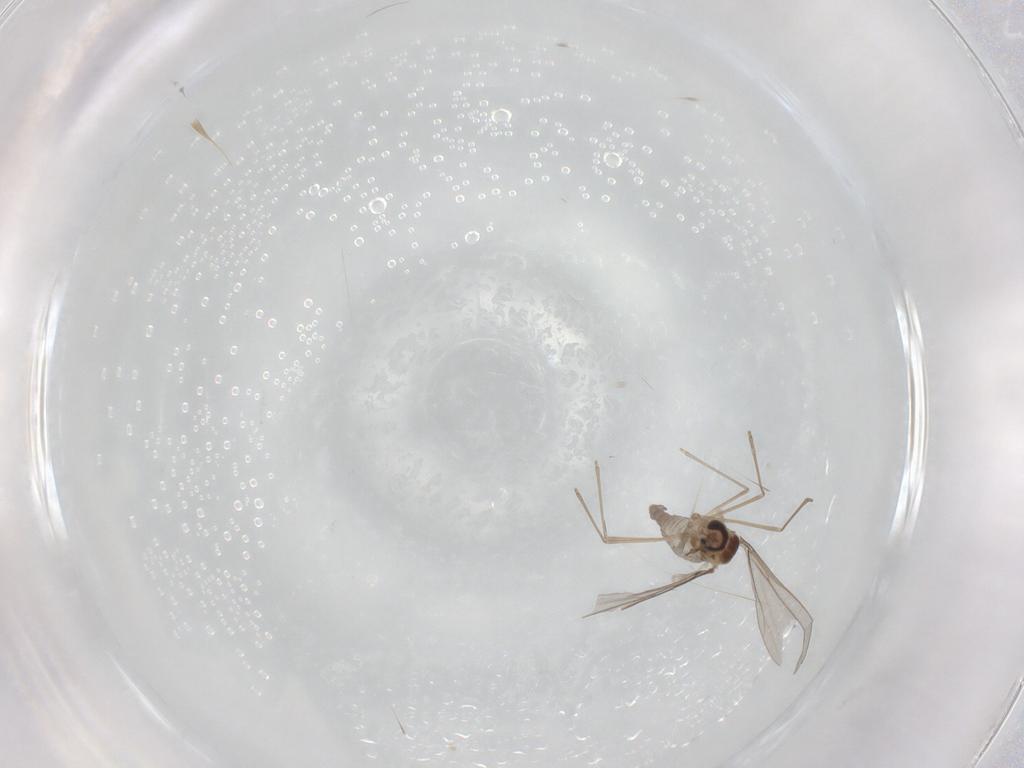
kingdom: Animalia
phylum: Arthropoda
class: Insecta
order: Diptera
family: Cecidomyiidae
